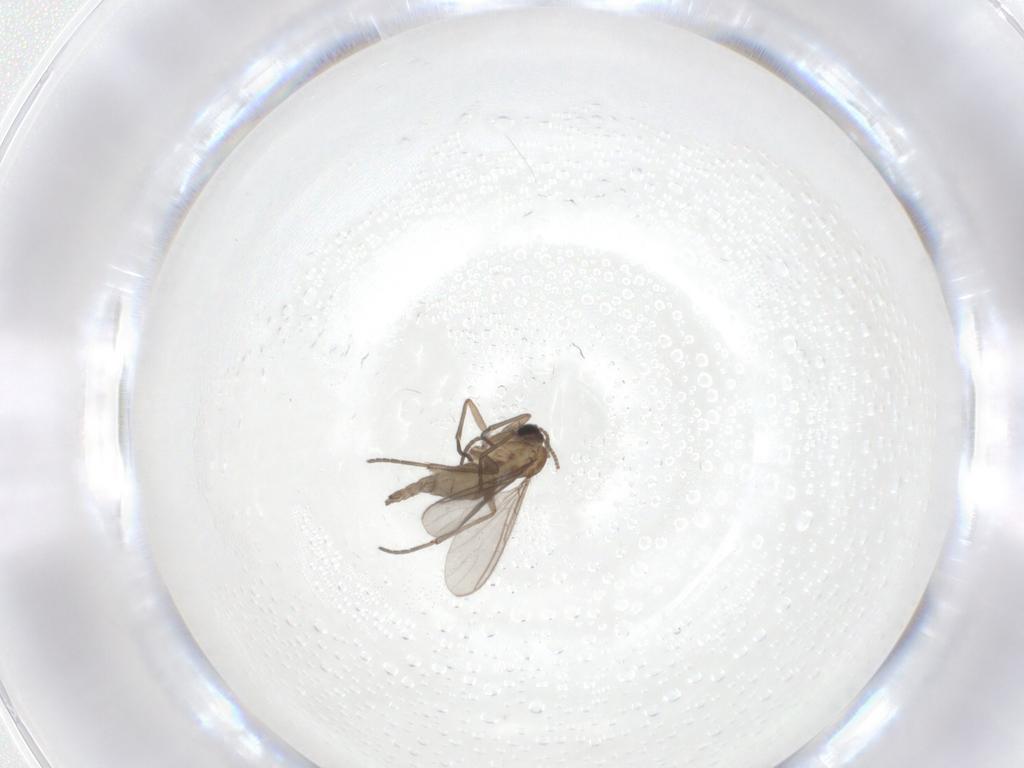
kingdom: Animalia
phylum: Arthropoda
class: Insecta
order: Diptera
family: Sciaridae
